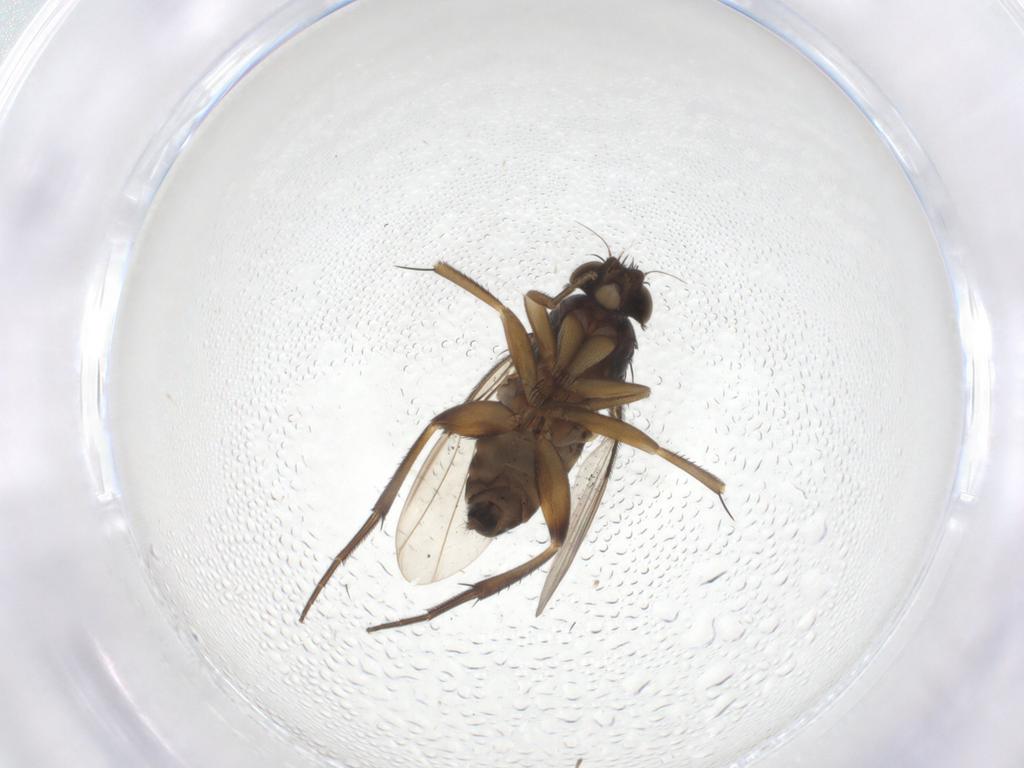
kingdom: Animalia
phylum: Arthropoda
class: Insecta
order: Diptera
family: Phoridae
